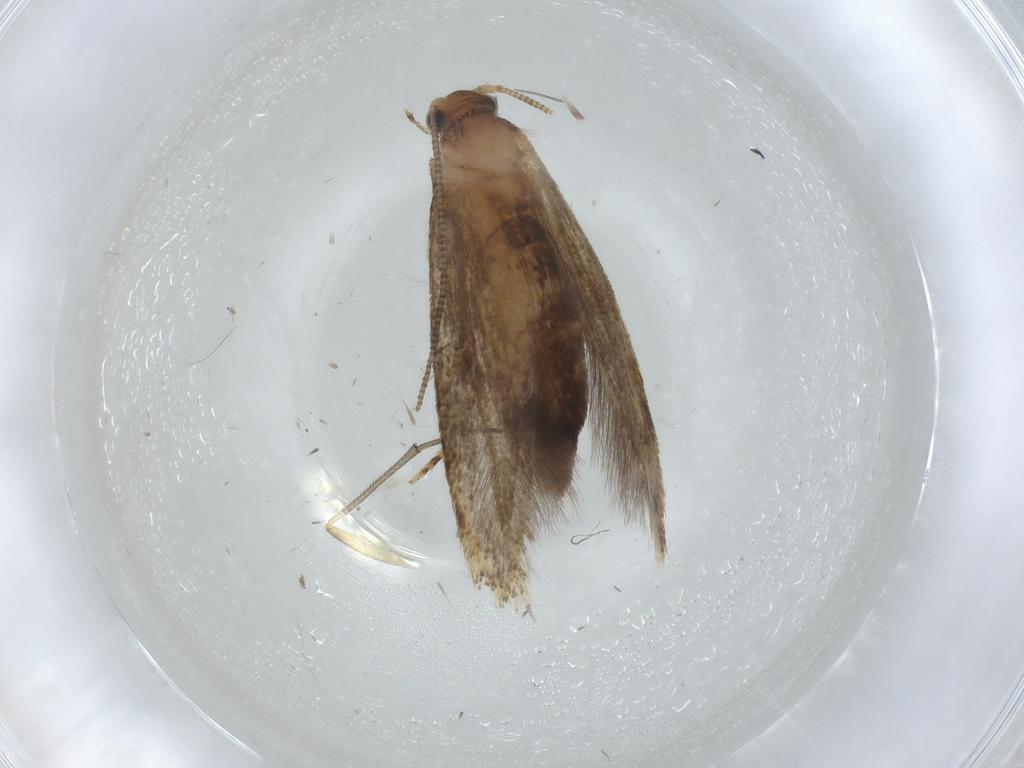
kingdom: Animalia
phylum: Arthropoda
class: Insecta
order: Lepidoptera
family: Tineidae
